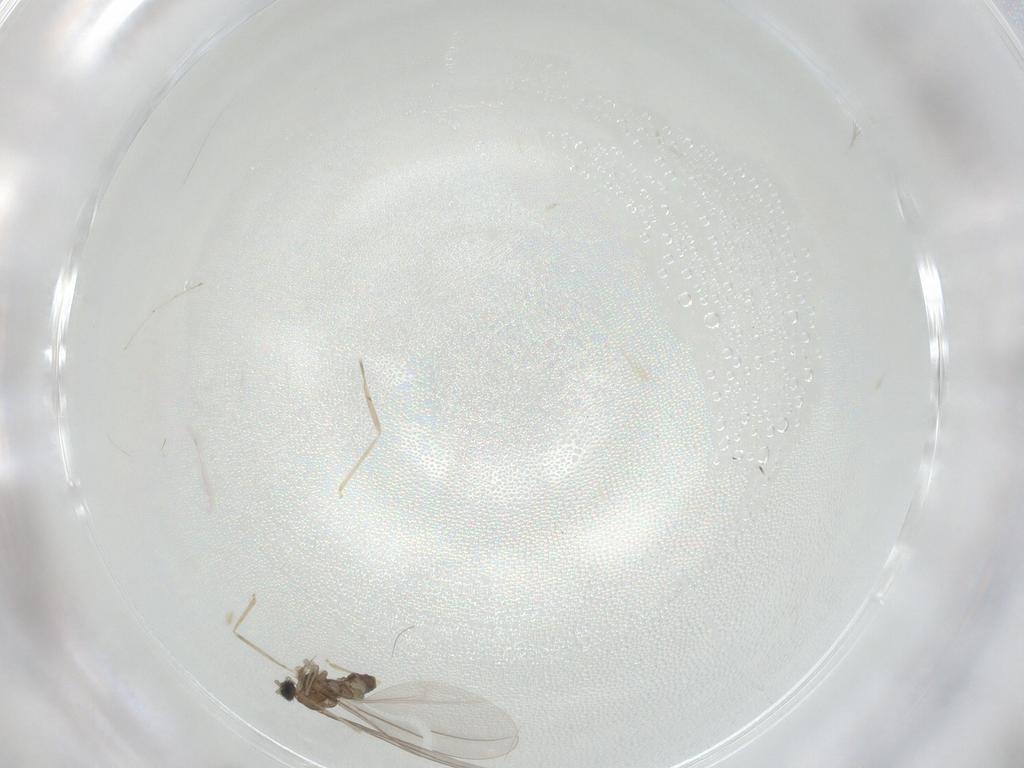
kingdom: Animalia
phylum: Arthropoda
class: Insecta
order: Diptera
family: Cecidomyiidae
